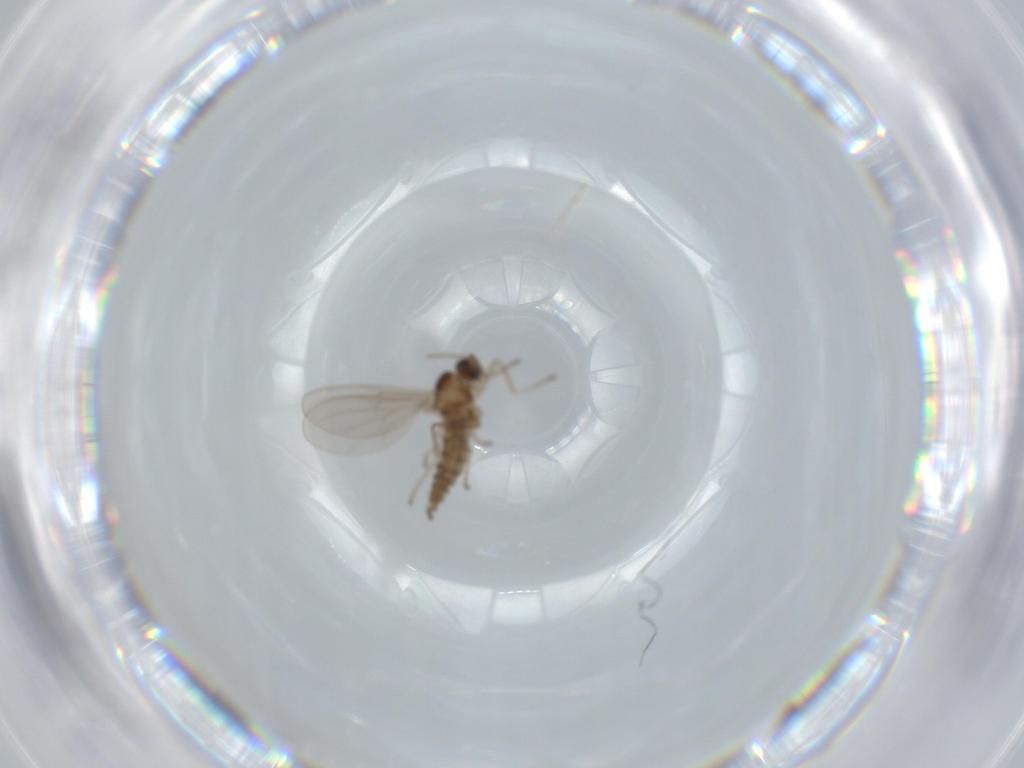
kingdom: Animalia
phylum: Arthropoda
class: Insecta
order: Diptera
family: Cecidomyiidae
